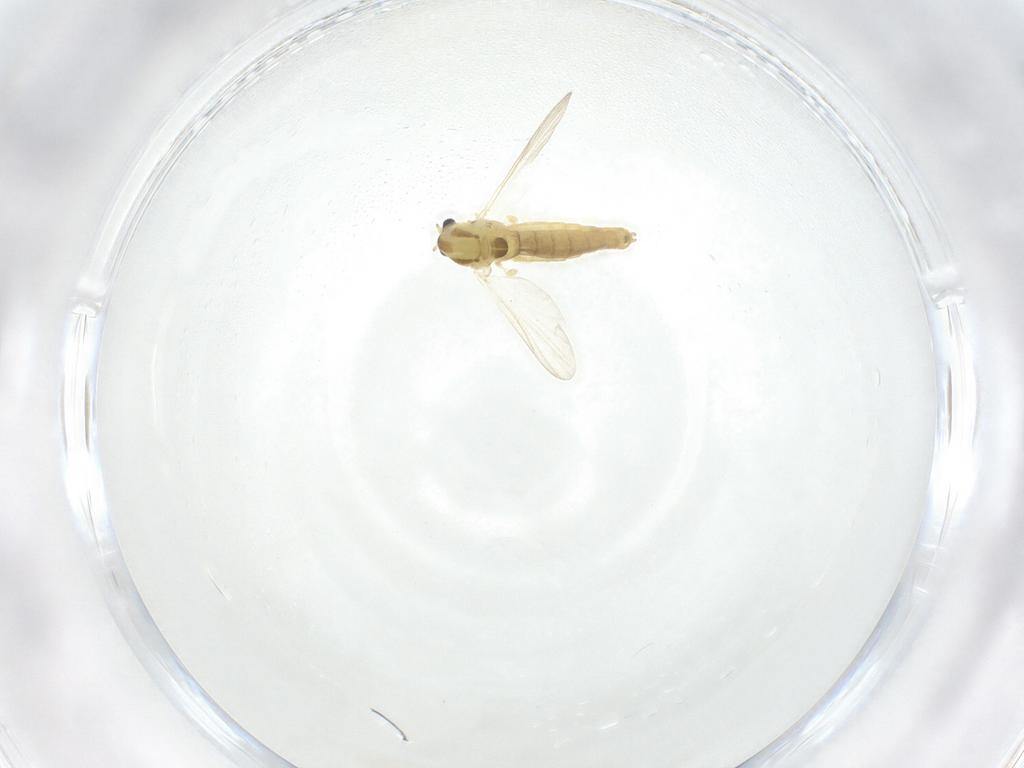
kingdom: Animalia
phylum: Arthropoda
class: Insecta
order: Diptera
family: Chironomidae
